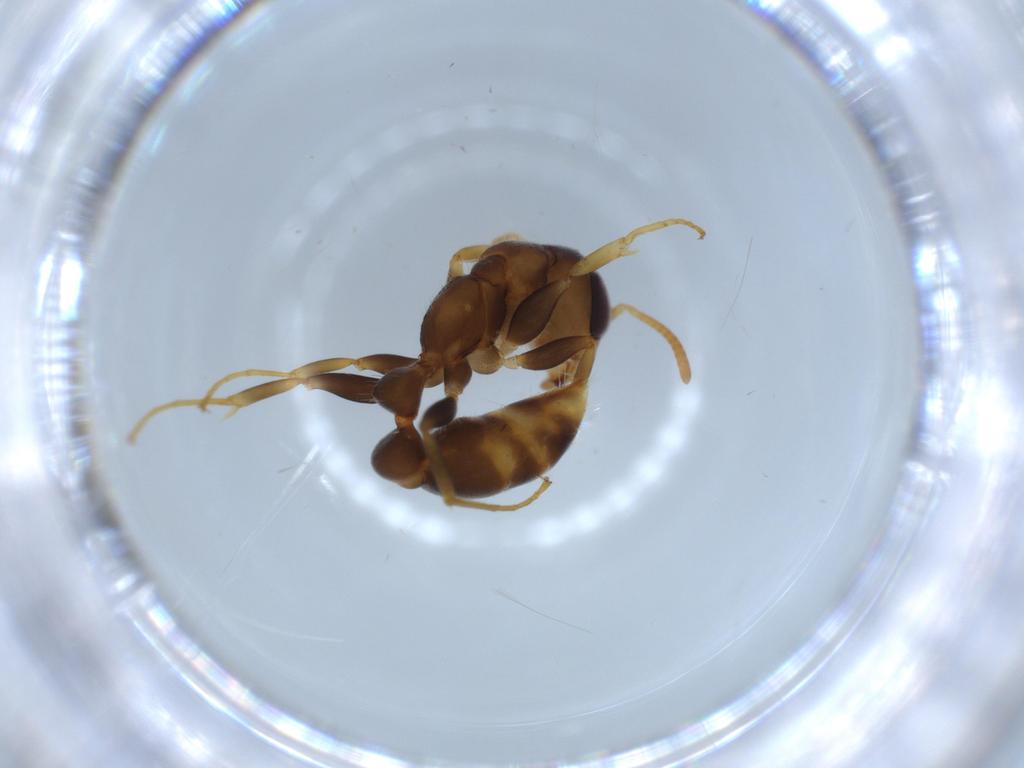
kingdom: Animalia
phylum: Arthropoda
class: Insecta
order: Hymenoptera
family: Formicidae
